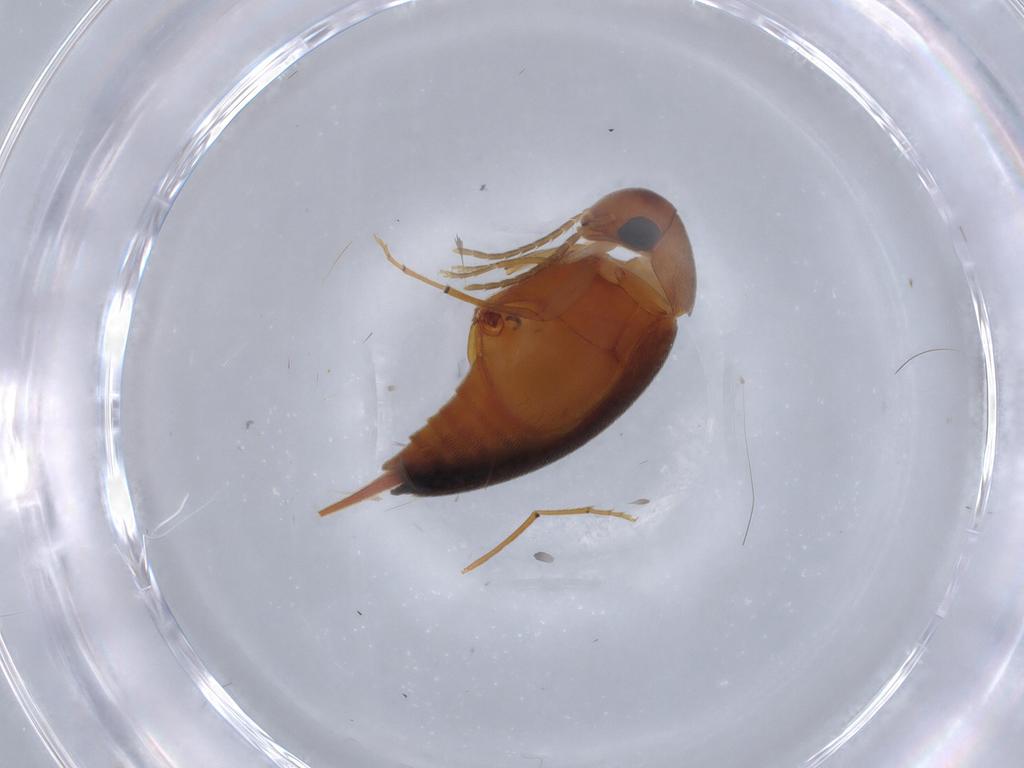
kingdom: Animalia
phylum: Arthropoda
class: Insecta
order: Coleoptera
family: Mordellidae
